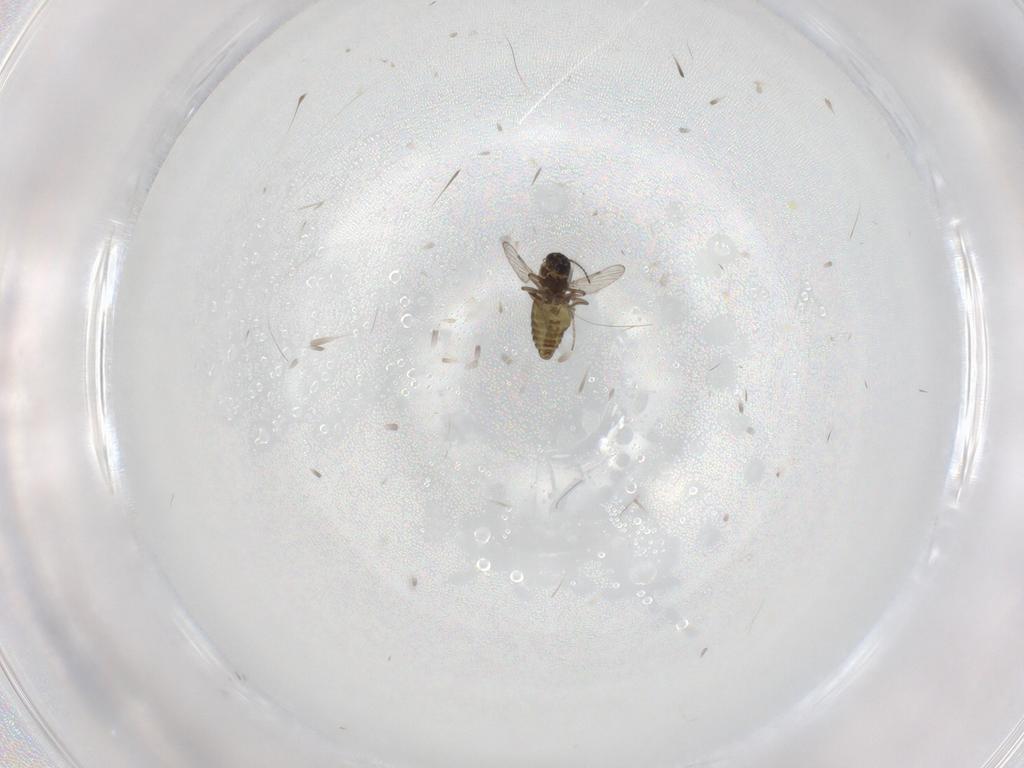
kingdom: Animalia
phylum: Arthropoda
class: Insecta
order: Diptera
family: Ceratopogonidae
